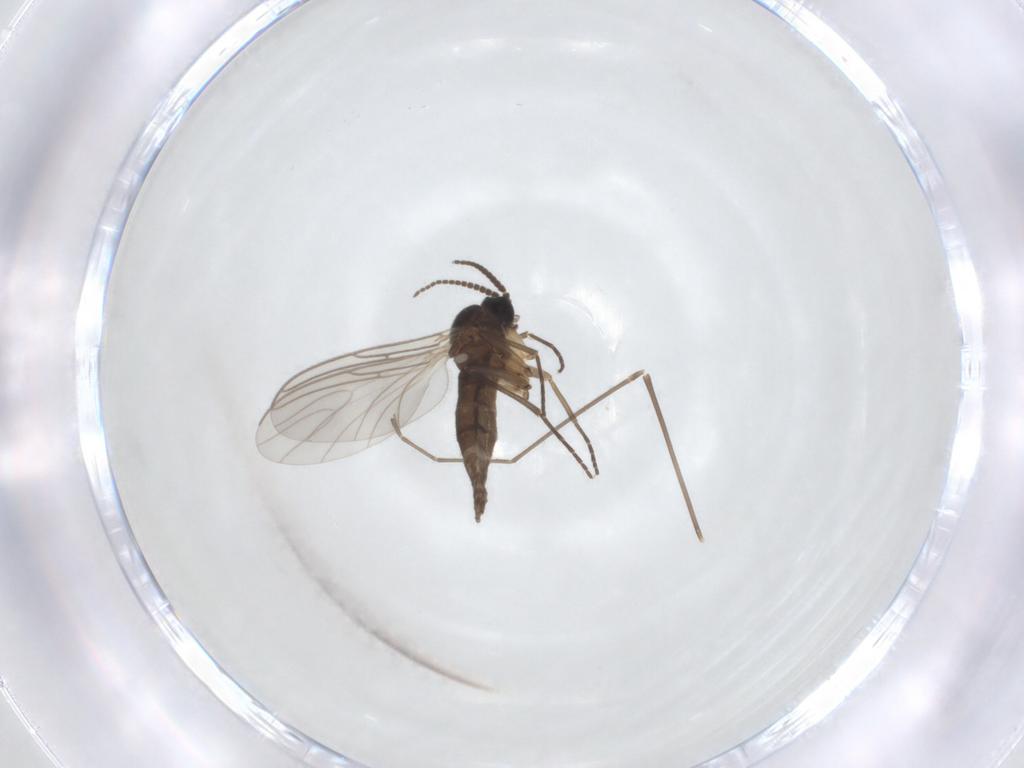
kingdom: Animalia
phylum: Arthropoda
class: Insecta
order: Diptera
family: Sciaridae
